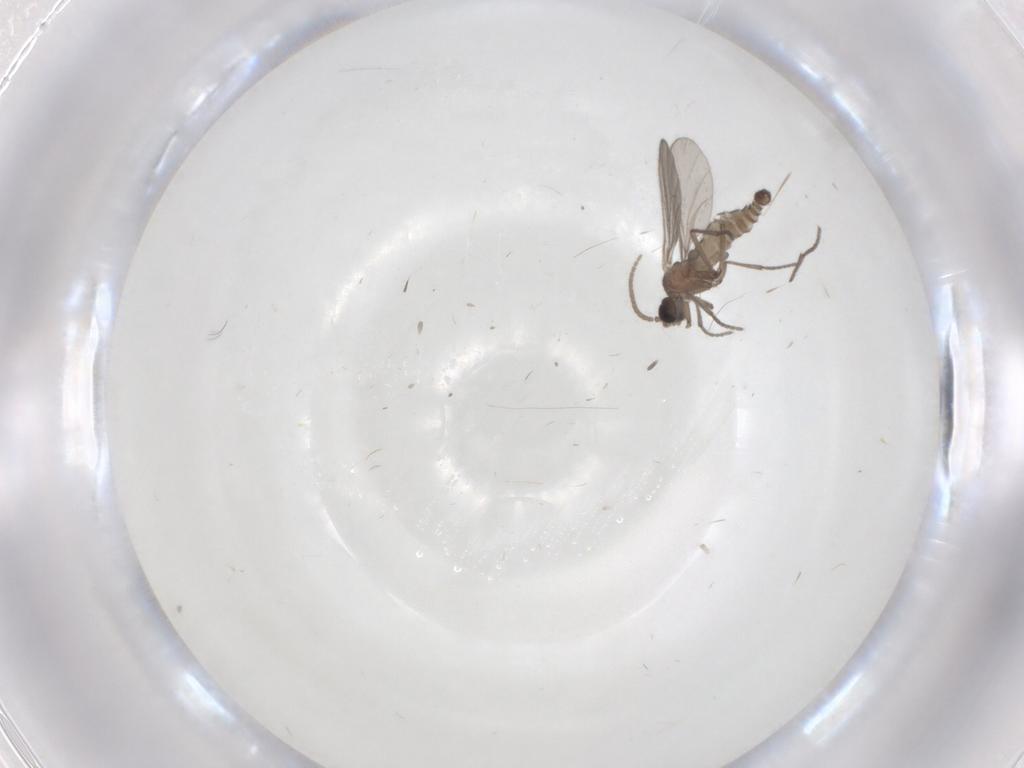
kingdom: Animalia
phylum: Arthropoda
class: Insecta
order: Diptera
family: Sciaridae
